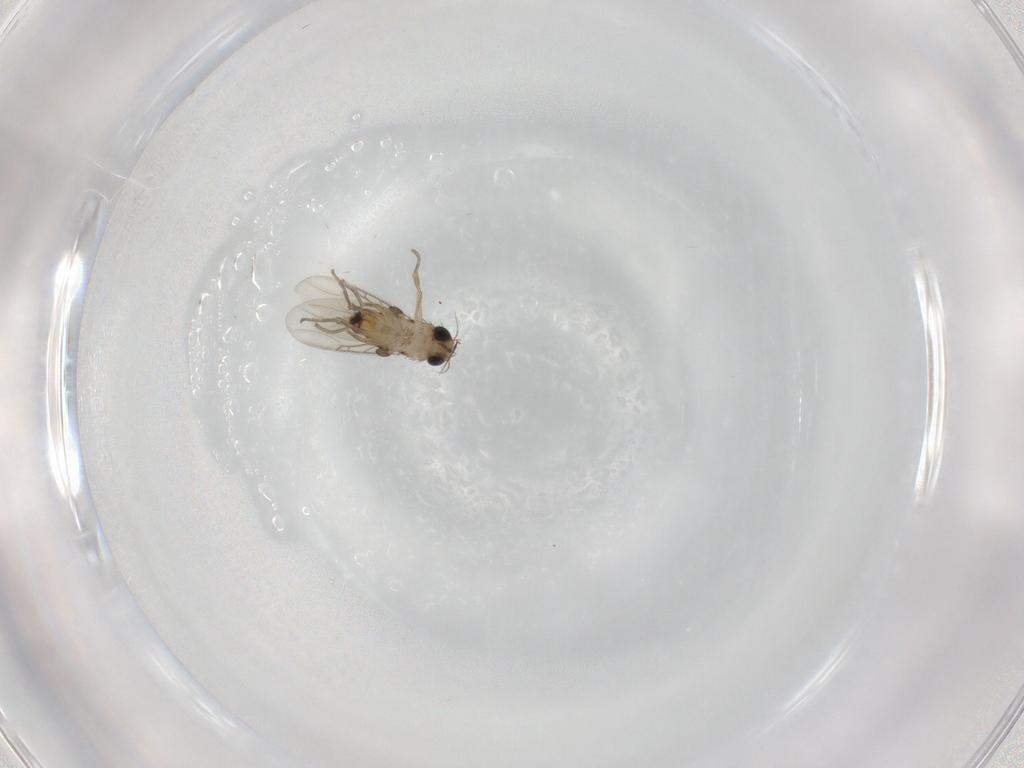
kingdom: Animalia
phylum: Arthropoda
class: Insecta
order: Diptera
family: Phoridae
